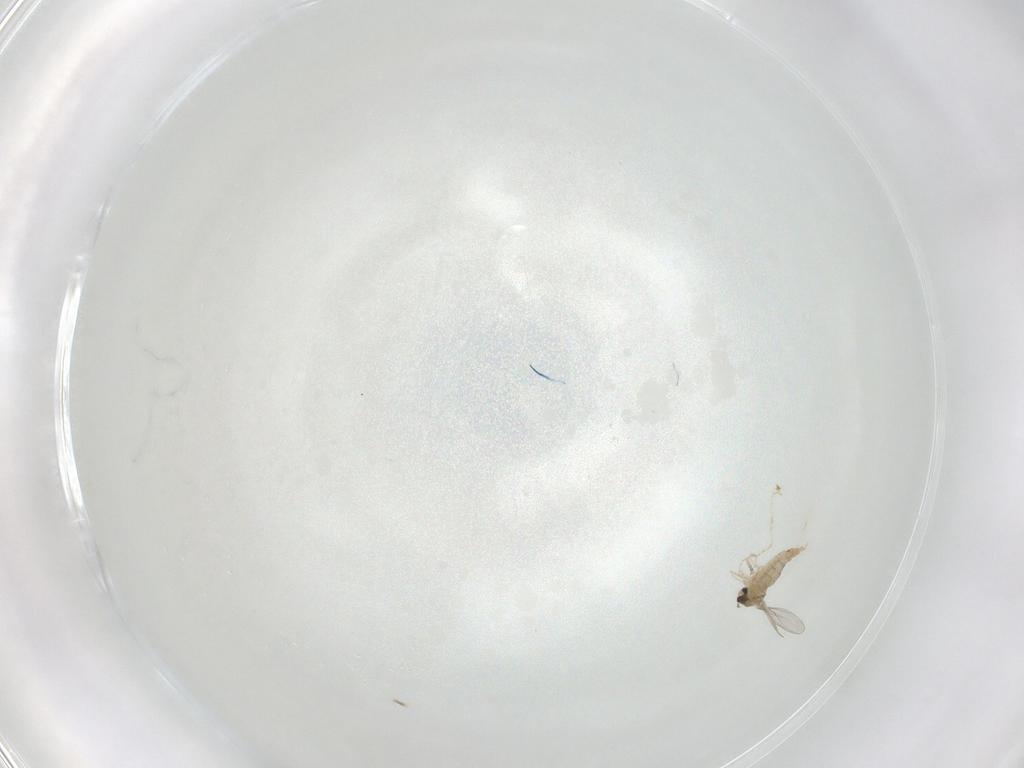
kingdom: Animalia
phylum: Arthropoda
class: Insecta
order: Diptera
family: Cecidomyiidae
